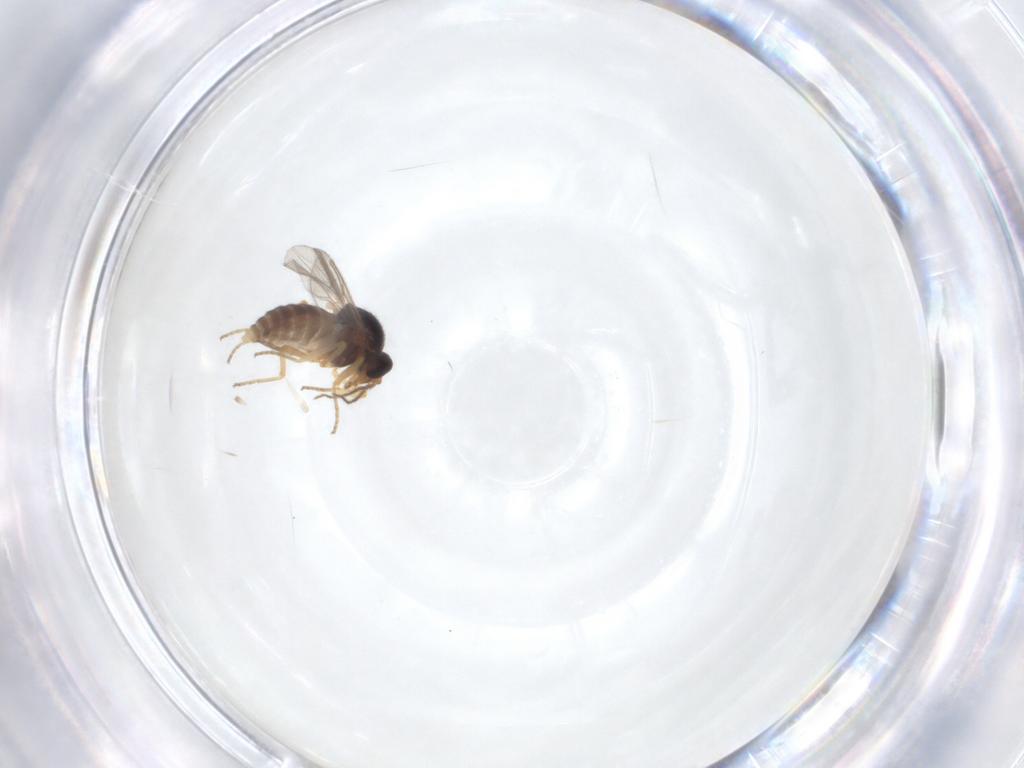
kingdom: Animalia
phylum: Arthropoda
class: Insecta
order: Diptera
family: Ceratopogonidae
